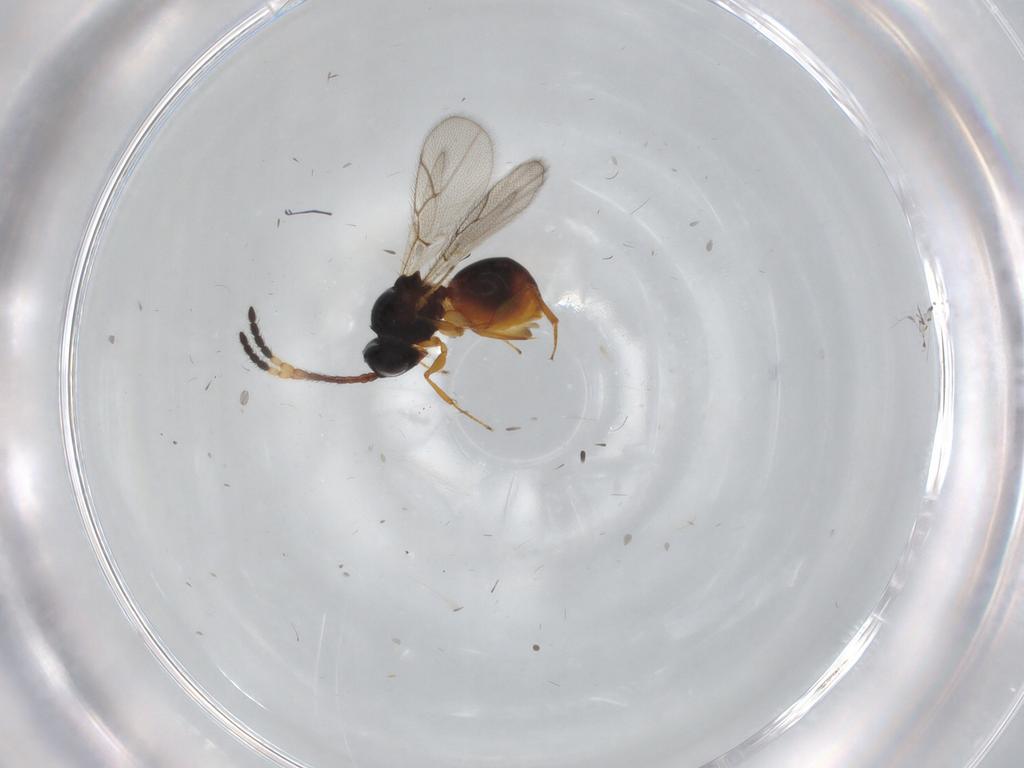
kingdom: Animalia
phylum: Arthropoda
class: Insecta
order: Hymenoptera
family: Figitidae
